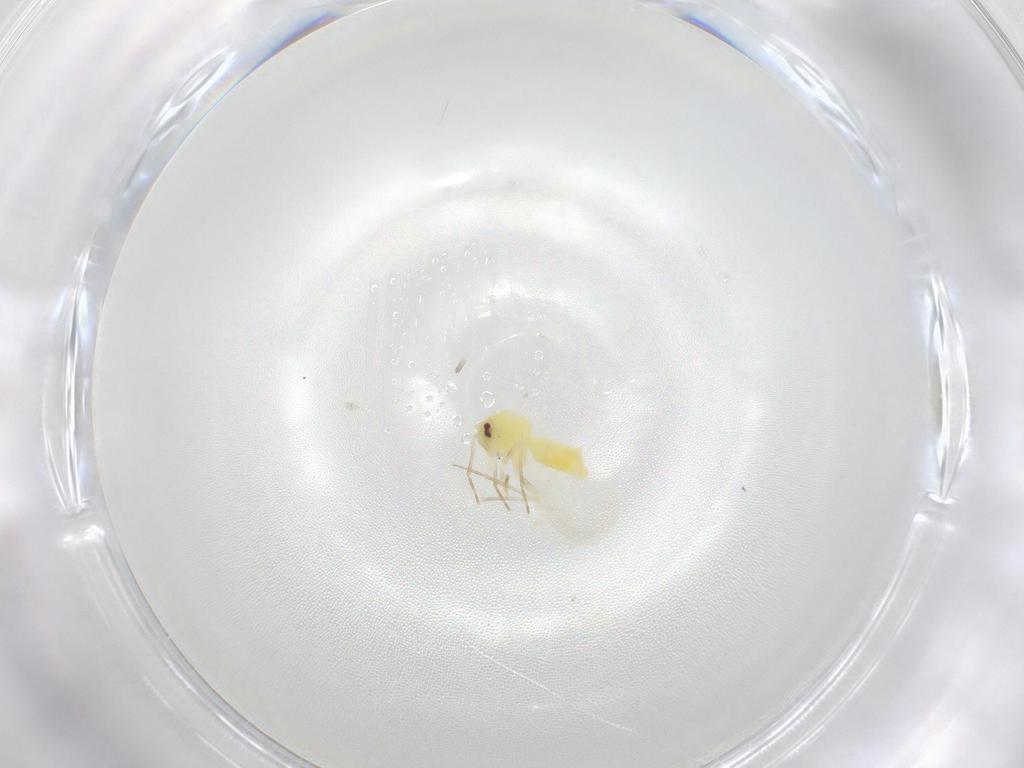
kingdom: Animalia
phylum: Arthropoda
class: Insecta
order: Hemiptera
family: Aleyrodidae
